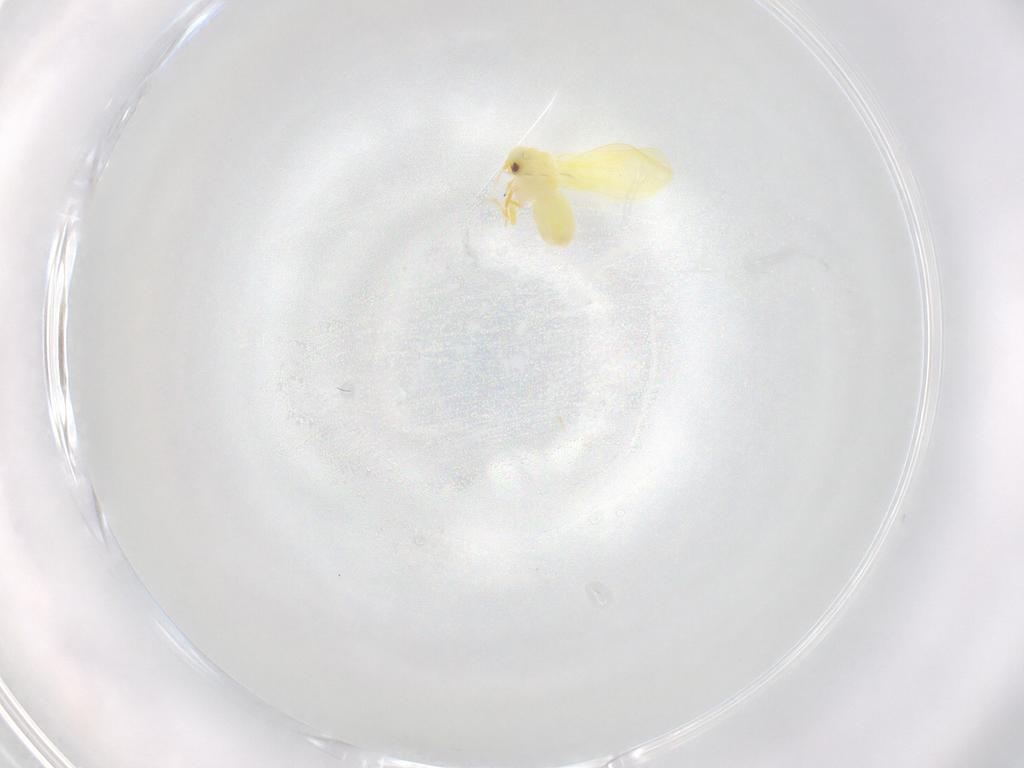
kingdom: Animalia
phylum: Arthropoda
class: Insecta
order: Hemiptera
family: Aleyrodidae
